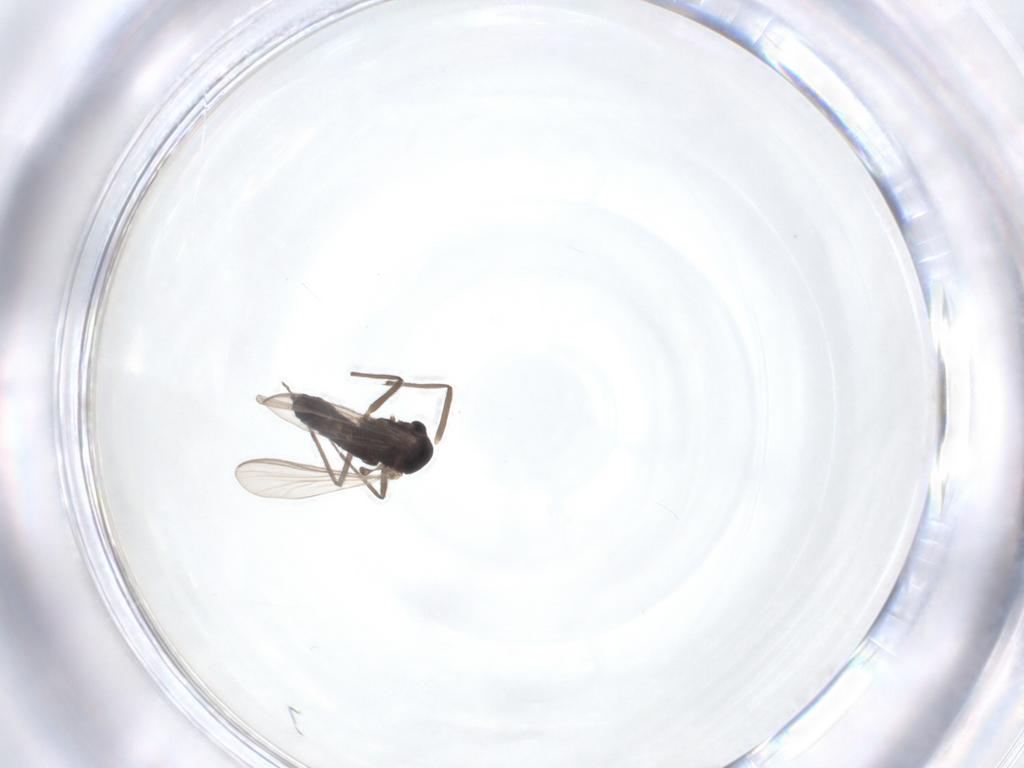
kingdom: Animalia
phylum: Arthropoda
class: Insecta
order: Diptera
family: Chironomidae
